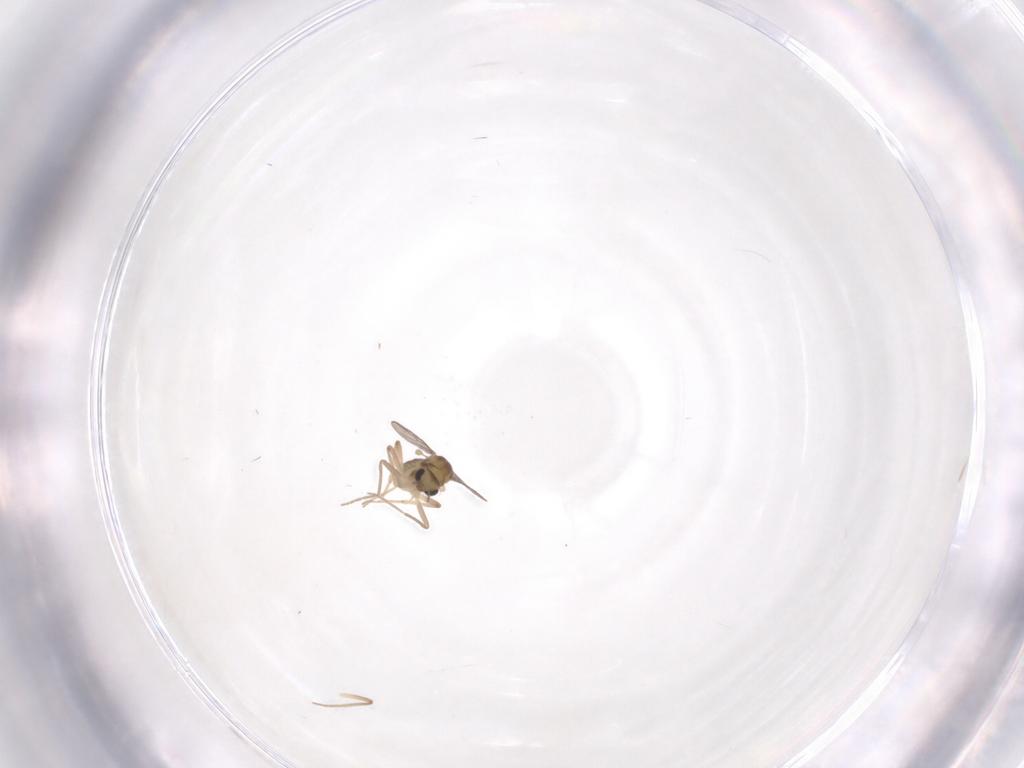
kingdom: Animalia
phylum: Arthropoda
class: Insecta
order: Diptera
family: Chironomidae
